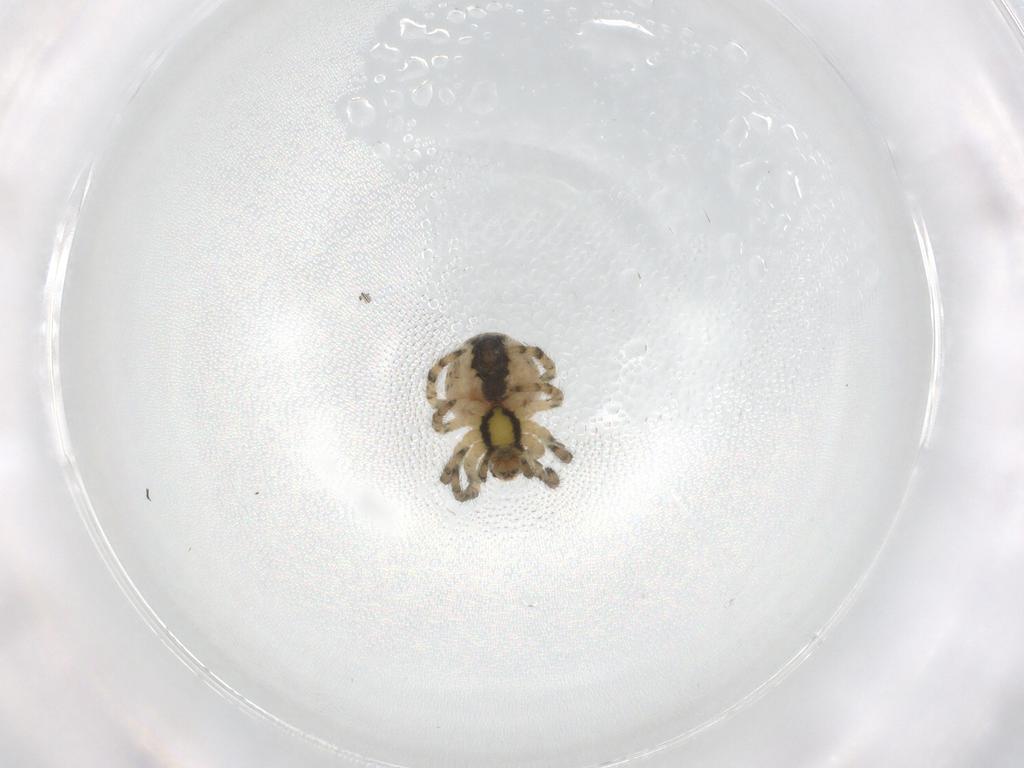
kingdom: Animalia
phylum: Arthropoda
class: Arachnida
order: Araneae
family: Araneidae
